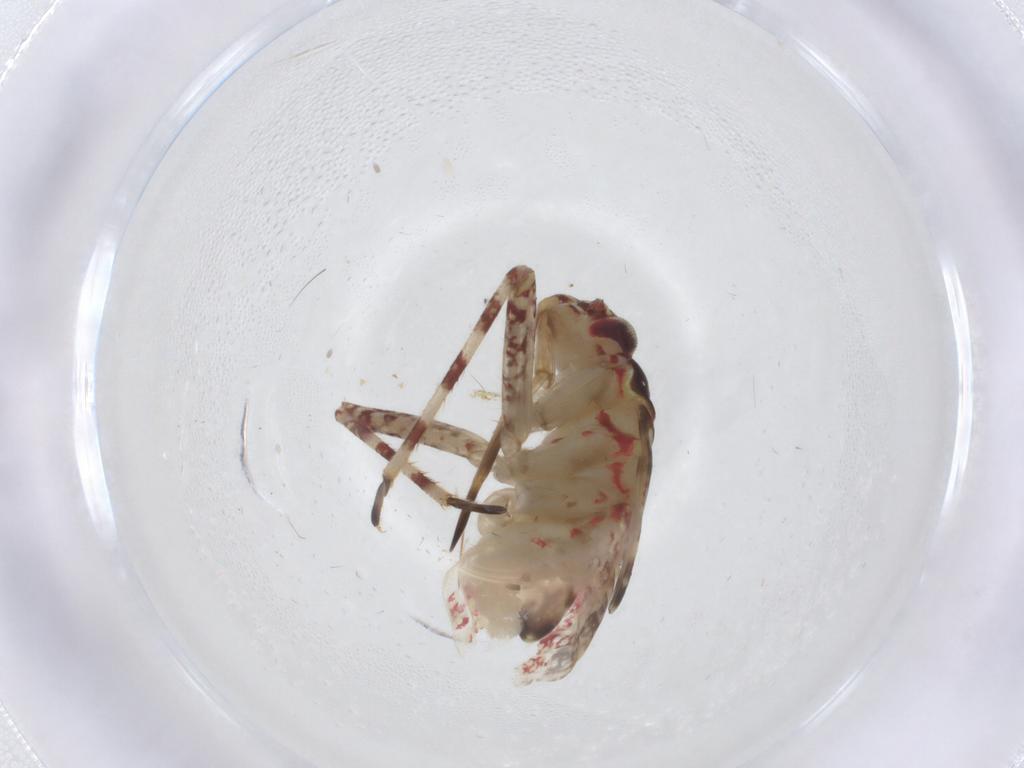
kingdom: Animalia
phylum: Arthropoda
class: Insecta
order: Hemiptera
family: Miridae
